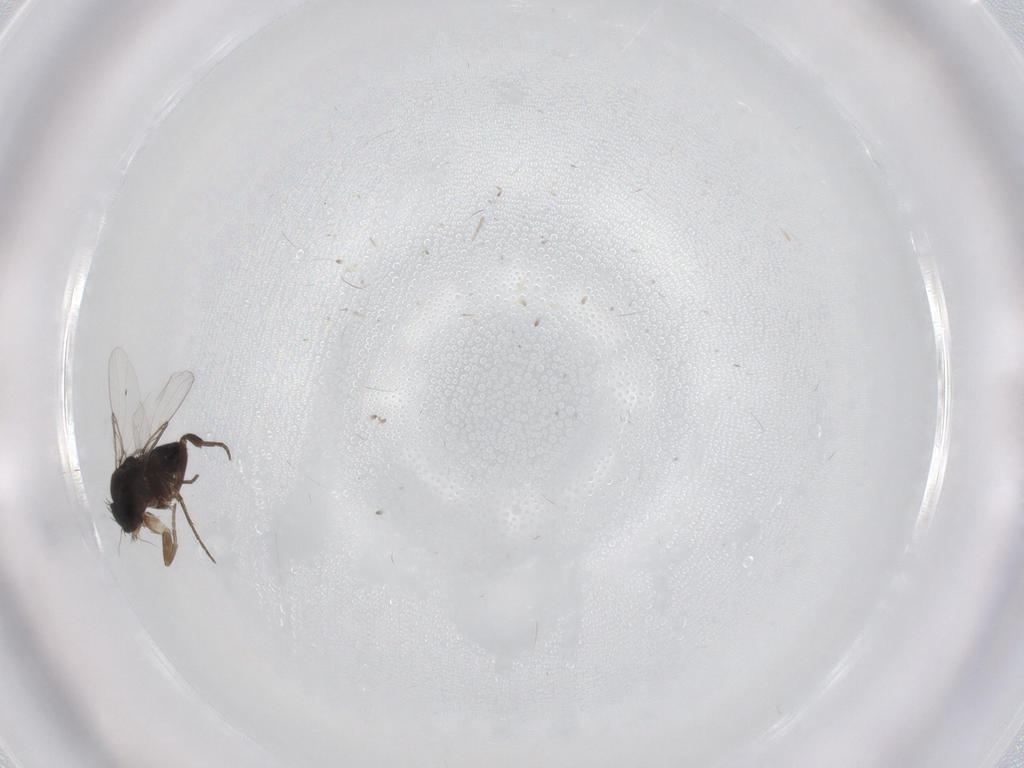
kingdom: Animalia
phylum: Arthropoda
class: Insecta
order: Diptera
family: Phoridae
